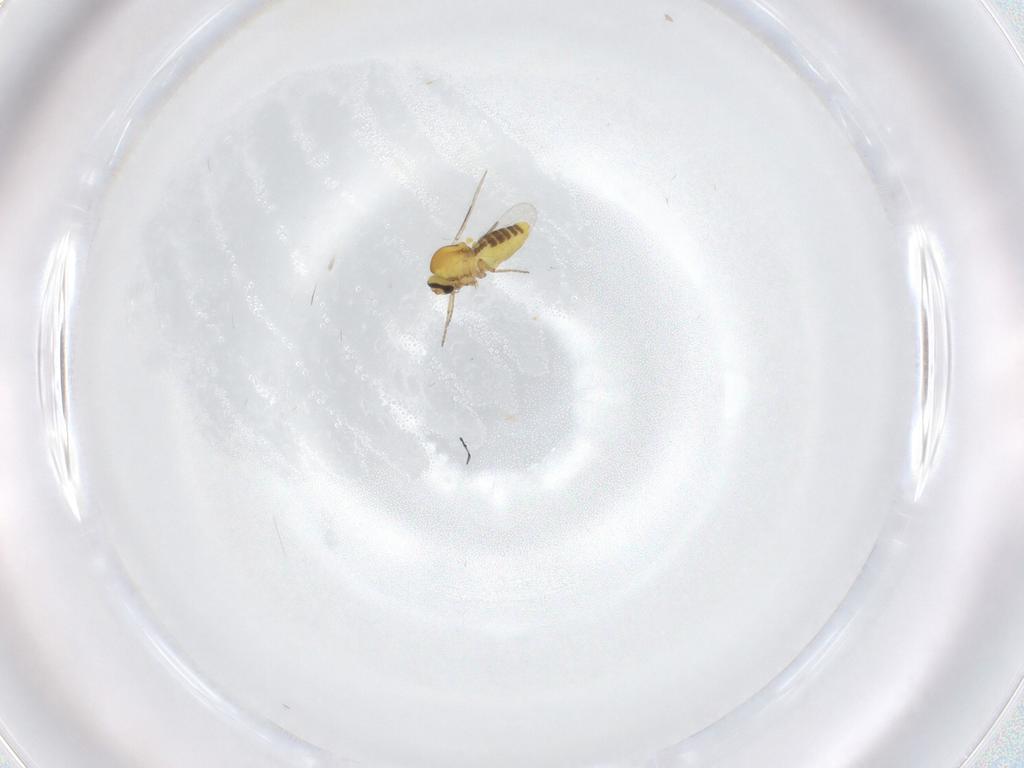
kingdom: Animalia
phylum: Arthropoda
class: Insecta
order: Diptera
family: Ceratopogonidae
